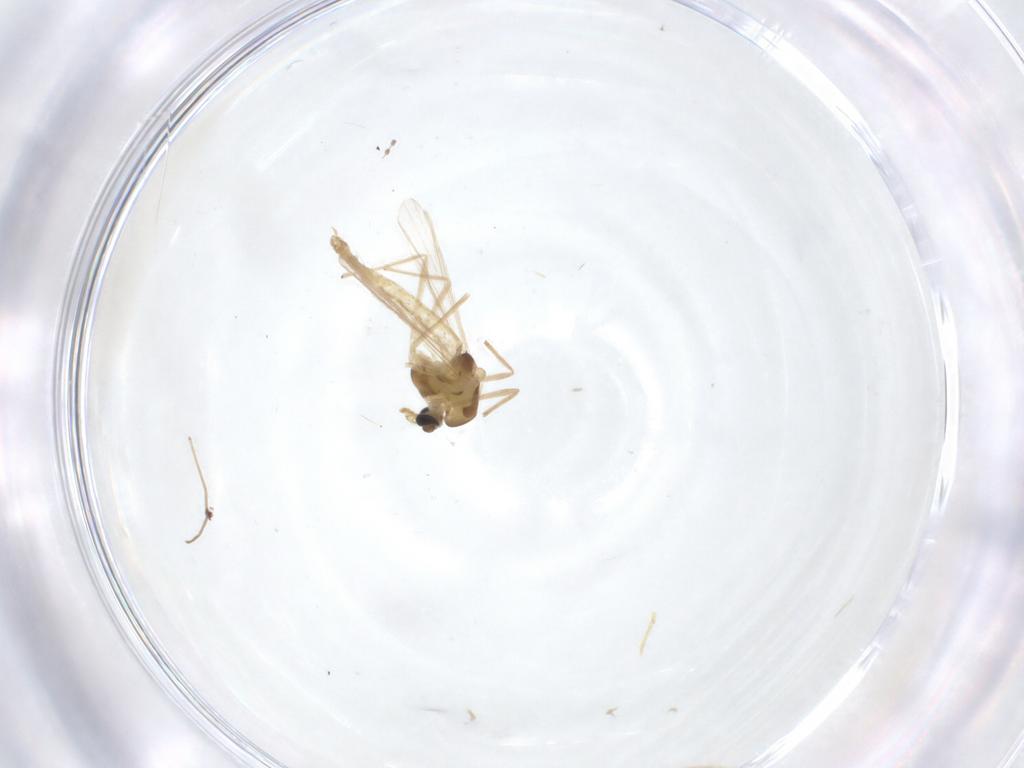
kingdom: Animalia
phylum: Arthropoda
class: Insecta
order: Diptera
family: Chironomidae
